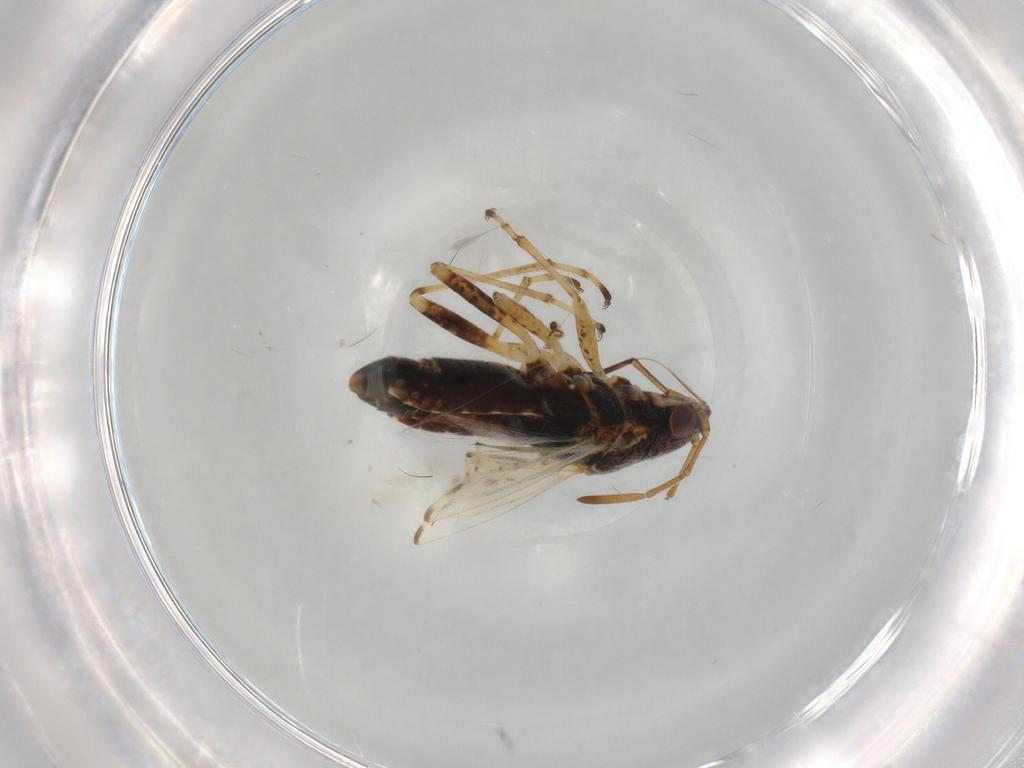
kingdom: Animalia
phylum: Arthropoda
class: Insecta
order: Hemiptera
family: Lygaeidae
